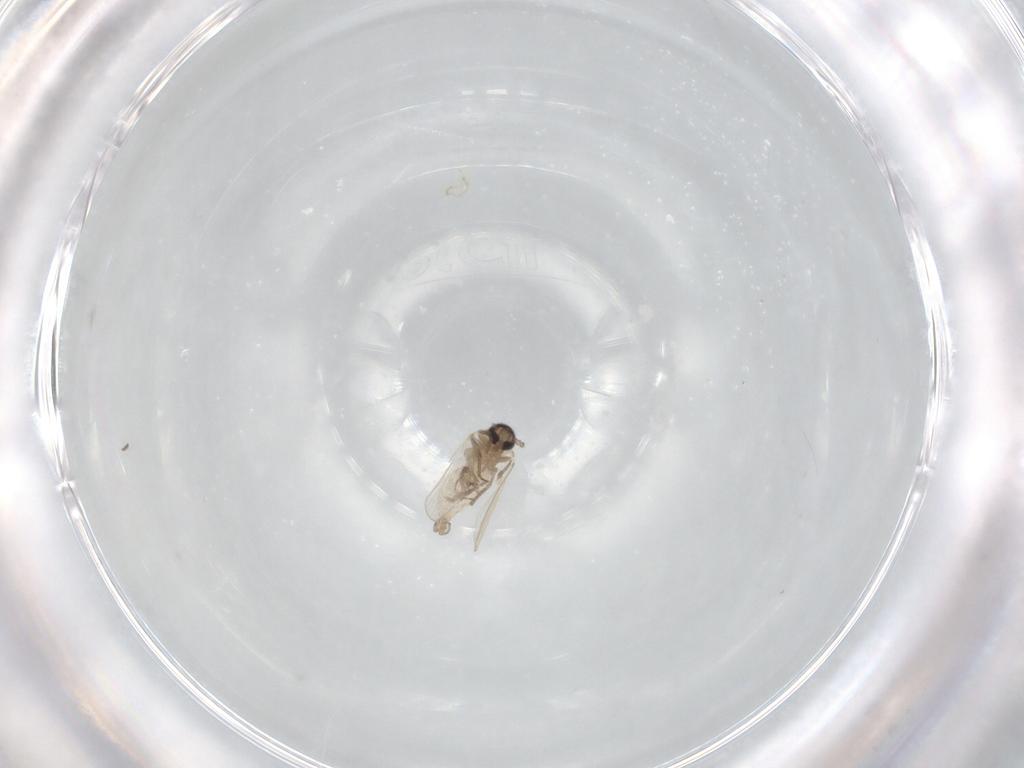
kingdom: Animalia
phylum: Arthropoda
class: Insecta
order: Diptera
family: Psychodidae
